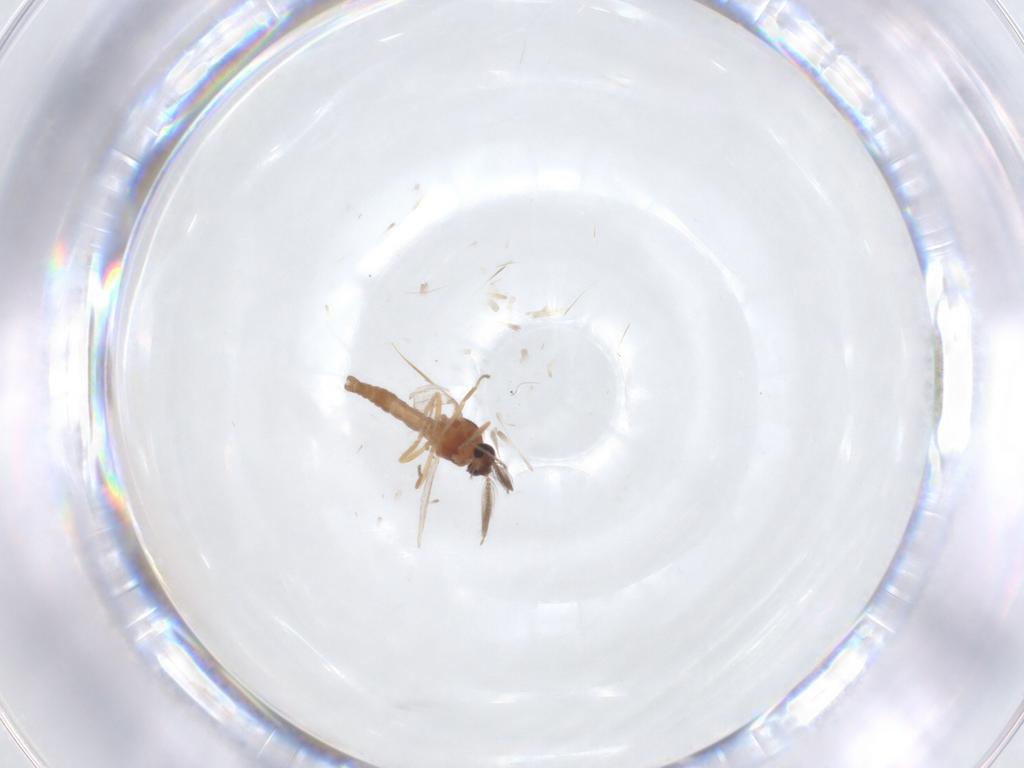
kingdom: Animalia
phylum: Arthropoda
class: Insecta
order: Diptera
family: Ceratopogonidae
